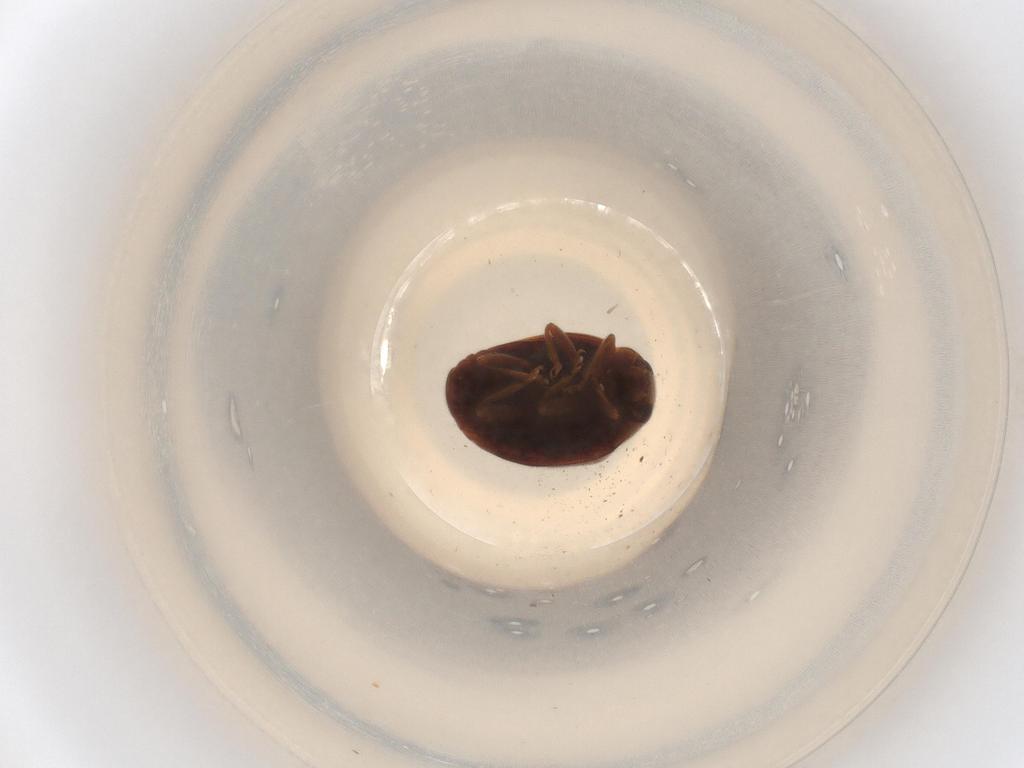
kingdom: Animalia
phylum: Arthropoda
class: Insecta
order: Coleoptera
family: Coccinellidae
